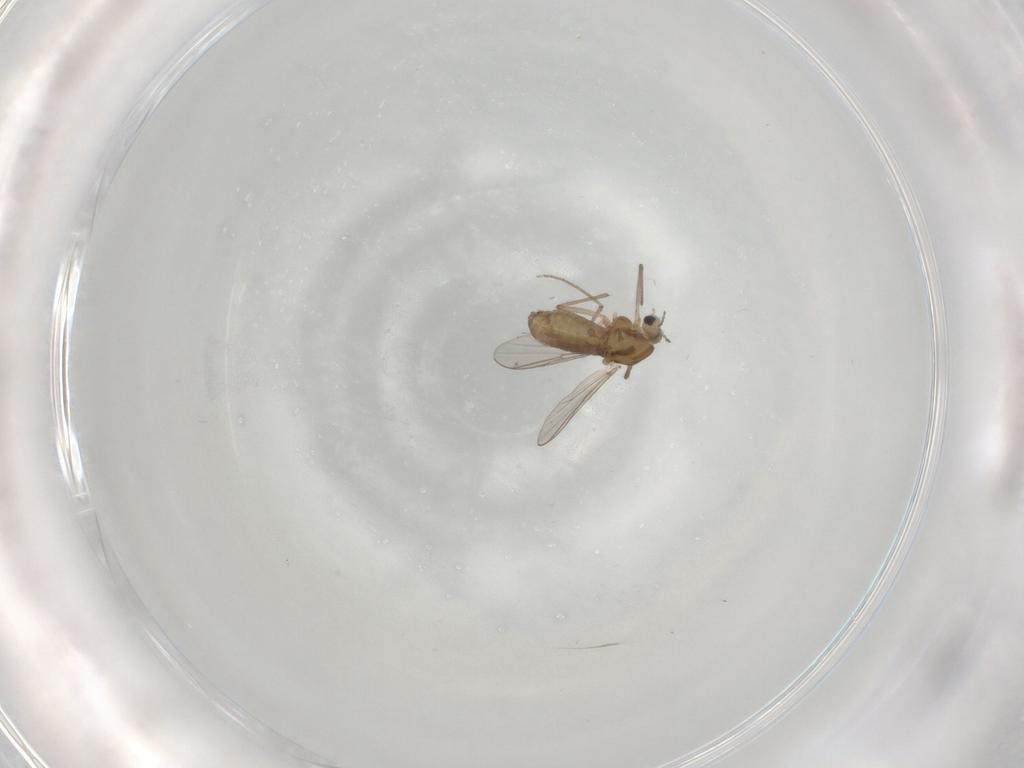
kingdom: Animalia
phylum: Arthropoda
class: Insecta
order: Diptera
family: Chironomidae
